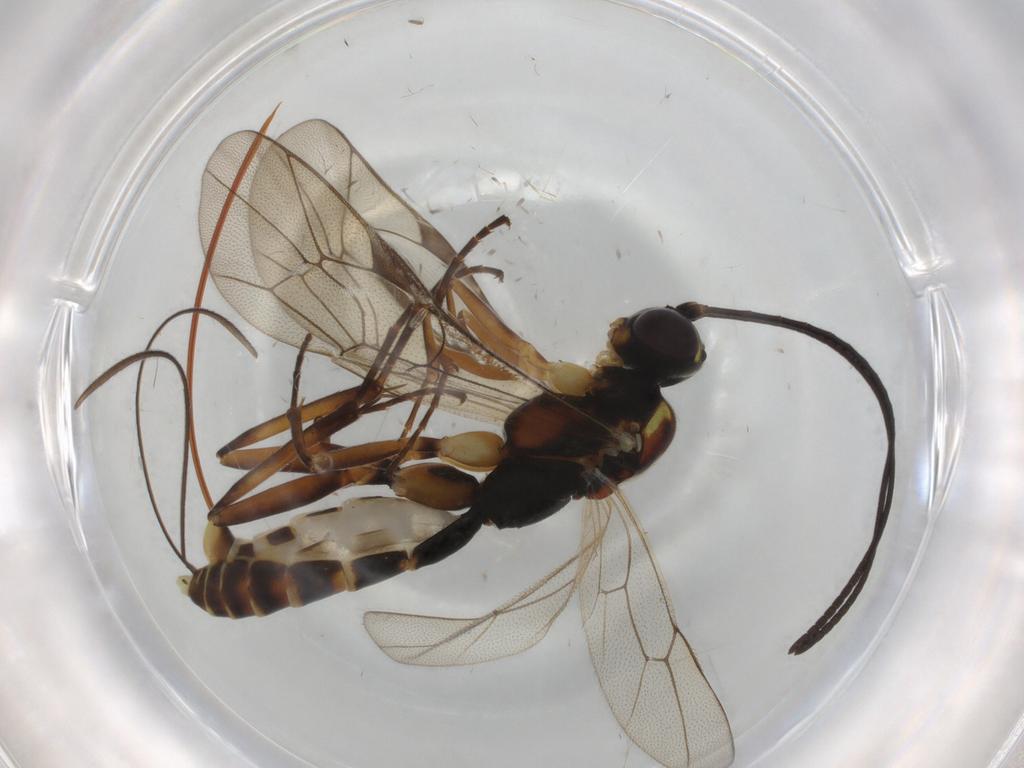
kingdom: Animalia
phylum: Arthropoda
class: Insecta
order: Hymenoptera
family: Ichneumonidae
